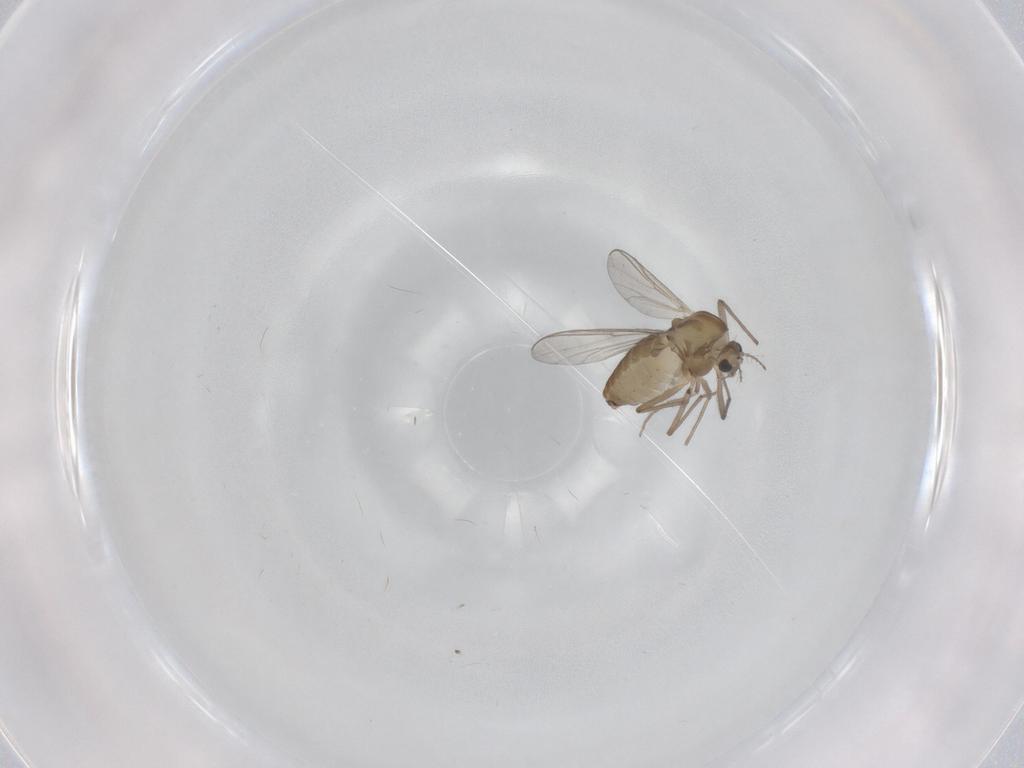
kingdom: Animalia
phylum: Arthropoda
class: Insecta
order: Diptera
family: Chironomidae
